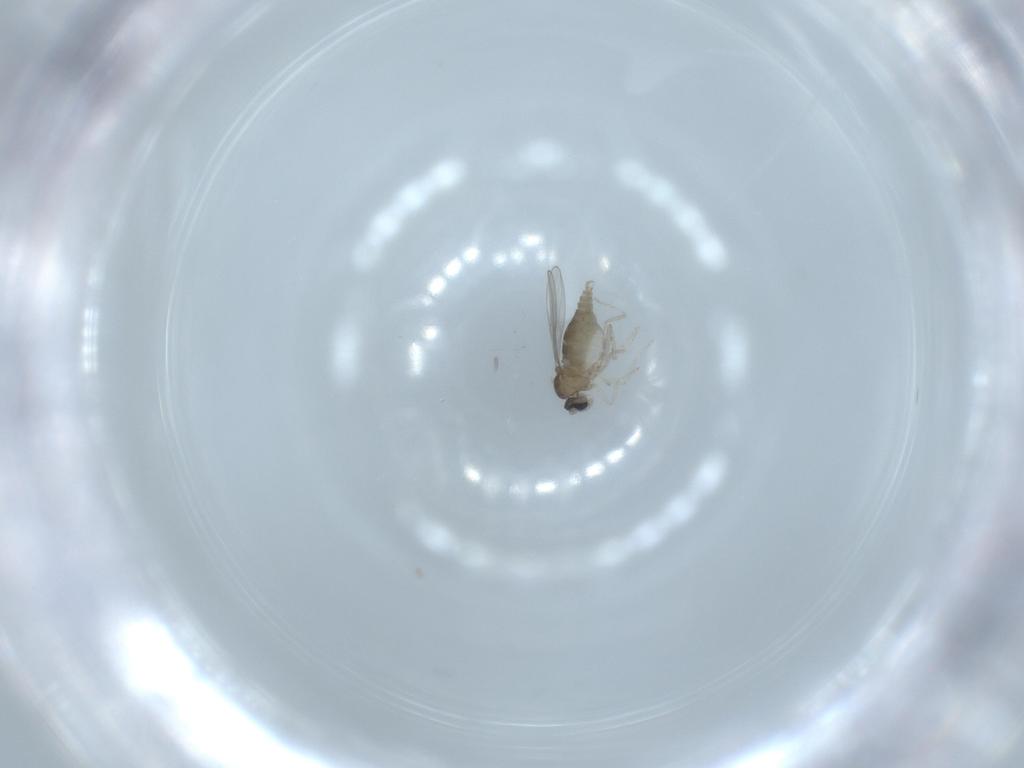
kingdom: Animalia
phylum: Arthropoda
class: Insecta
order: Diptera
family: Cecidomyiidae
